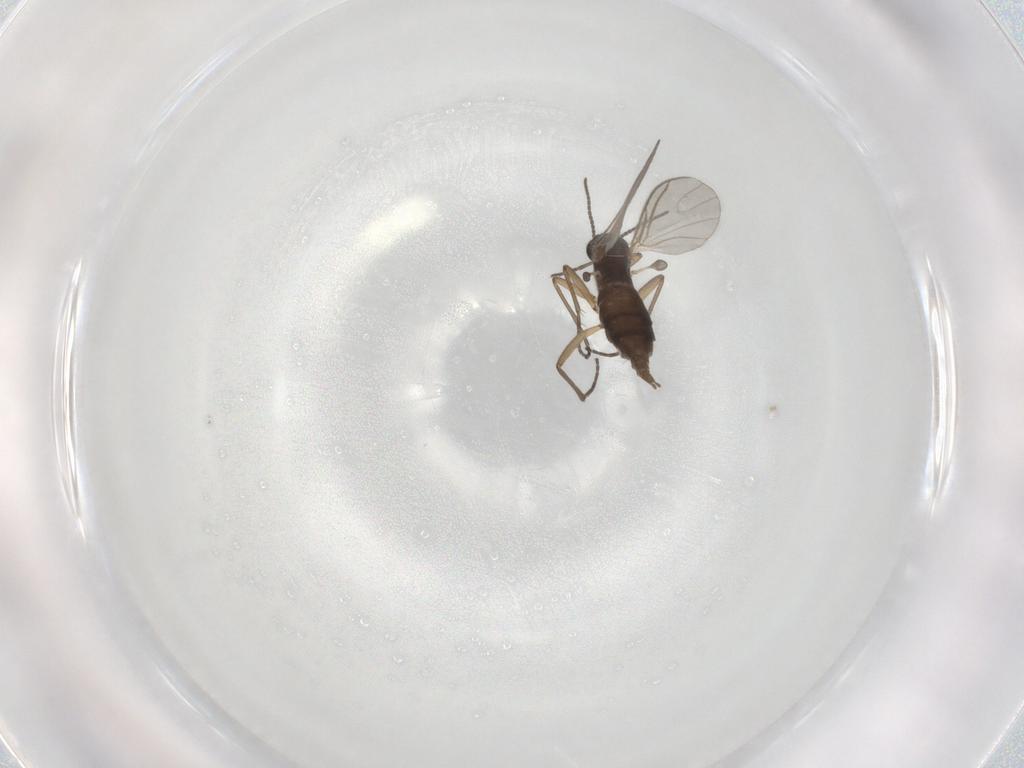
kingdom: Animalia
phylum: Arthropoda
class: Insecta
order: Diptera
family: Sciaridae
